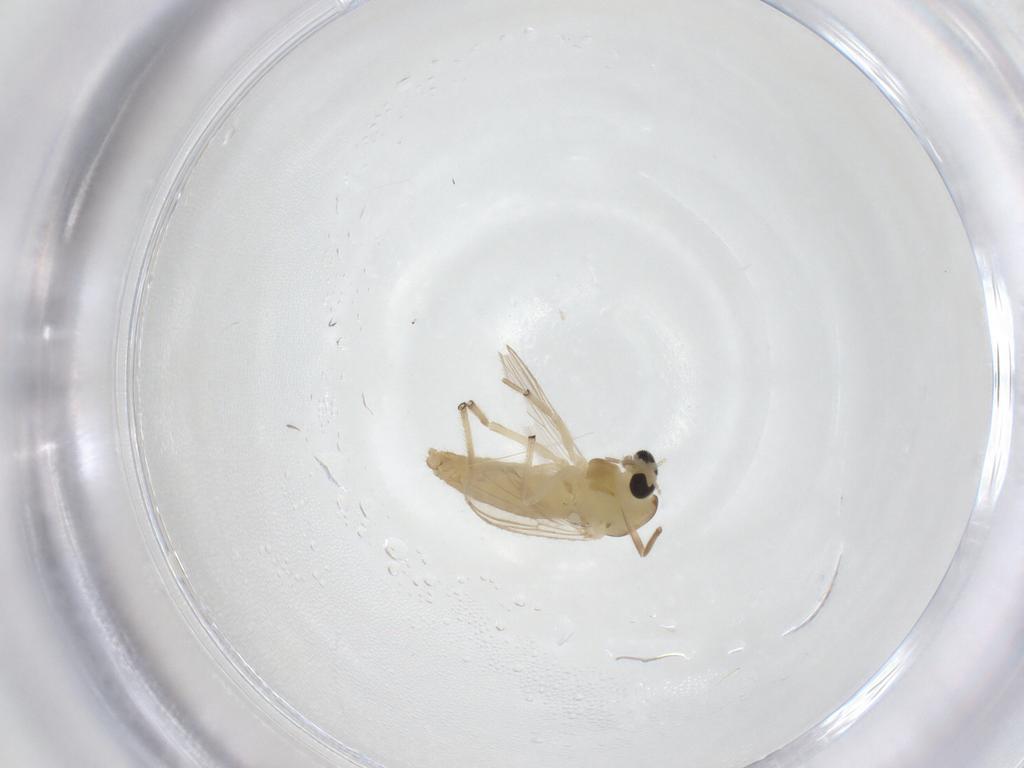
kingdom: Animalia
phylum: Arthropoda
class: Insecta
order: Diptera
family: Chironomidae
